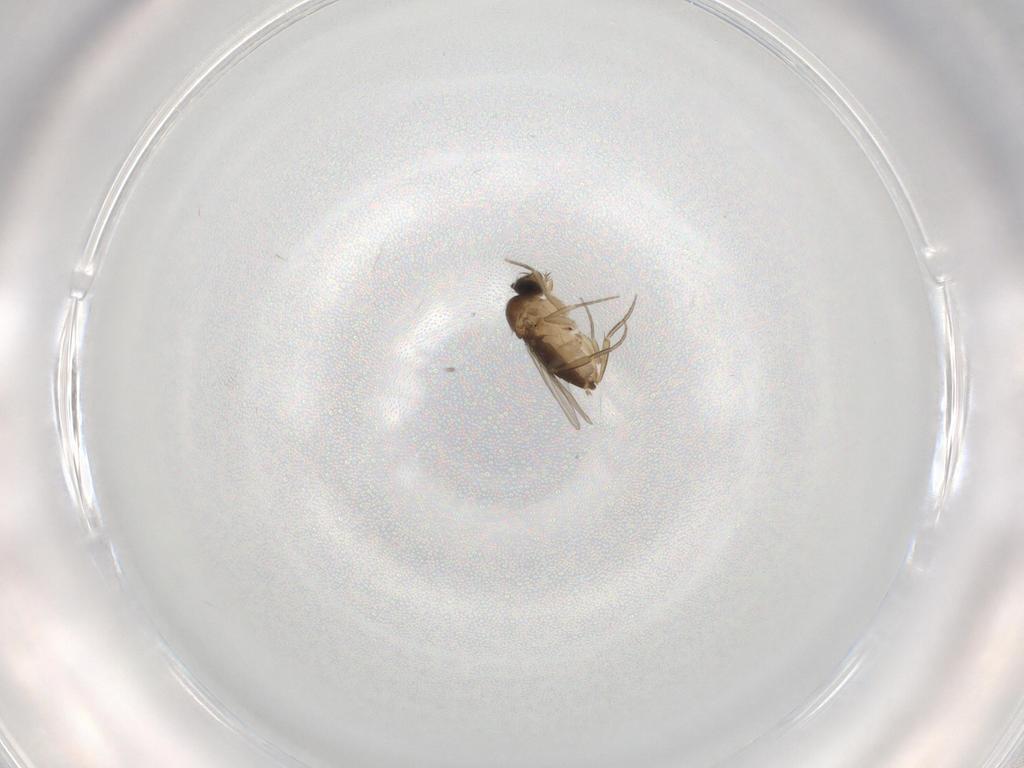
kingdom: Animalia
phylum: Arthropoda
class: Insecta
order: Diptera
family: Phoridae
